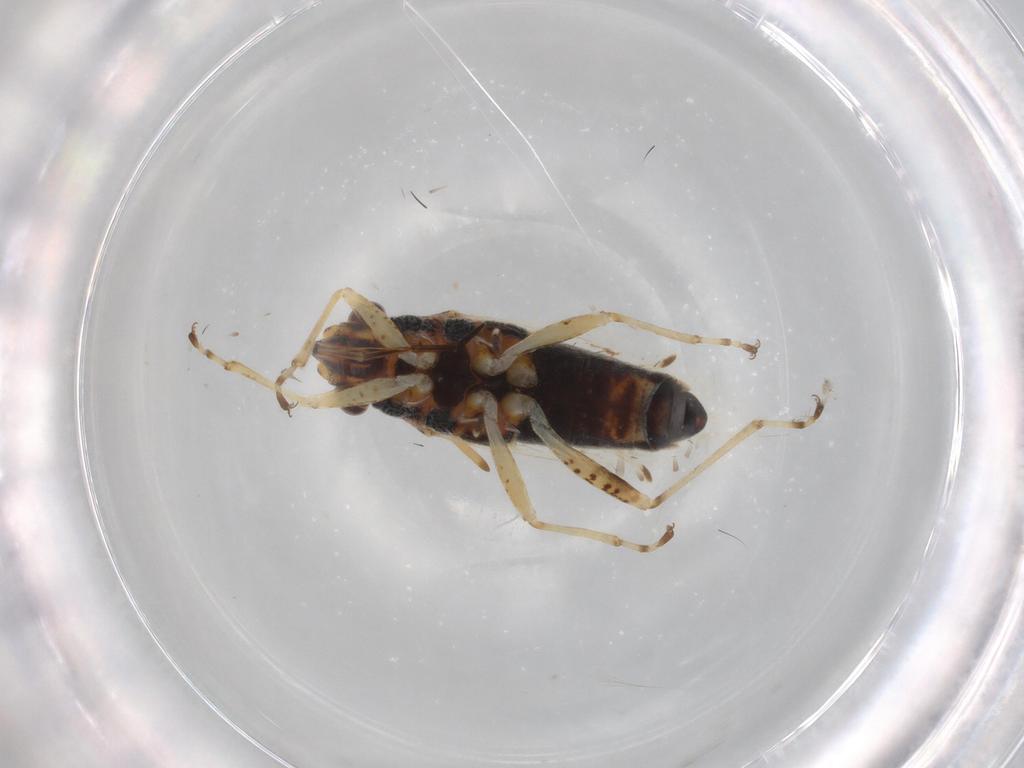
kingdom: Animalia
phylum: Arthropoda
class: Insecta
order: Hemiptera
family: Lygaeidae
